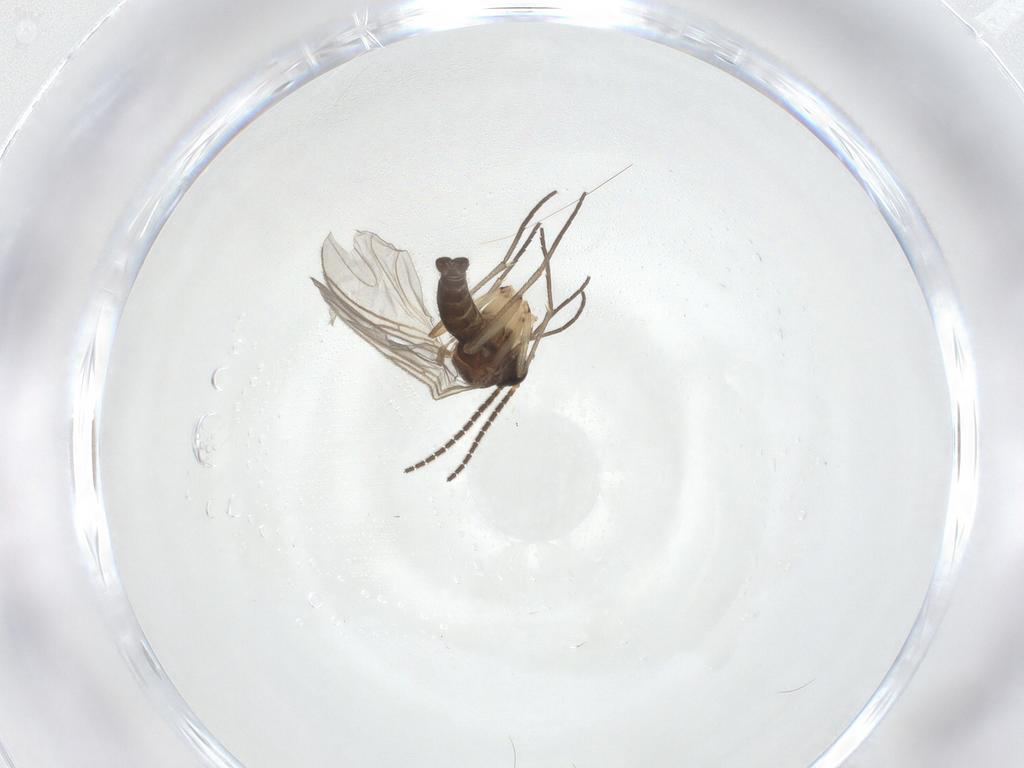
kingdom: Animalia
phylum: Arthropoda
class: Insecta
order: Diptera
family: Sciaridae
